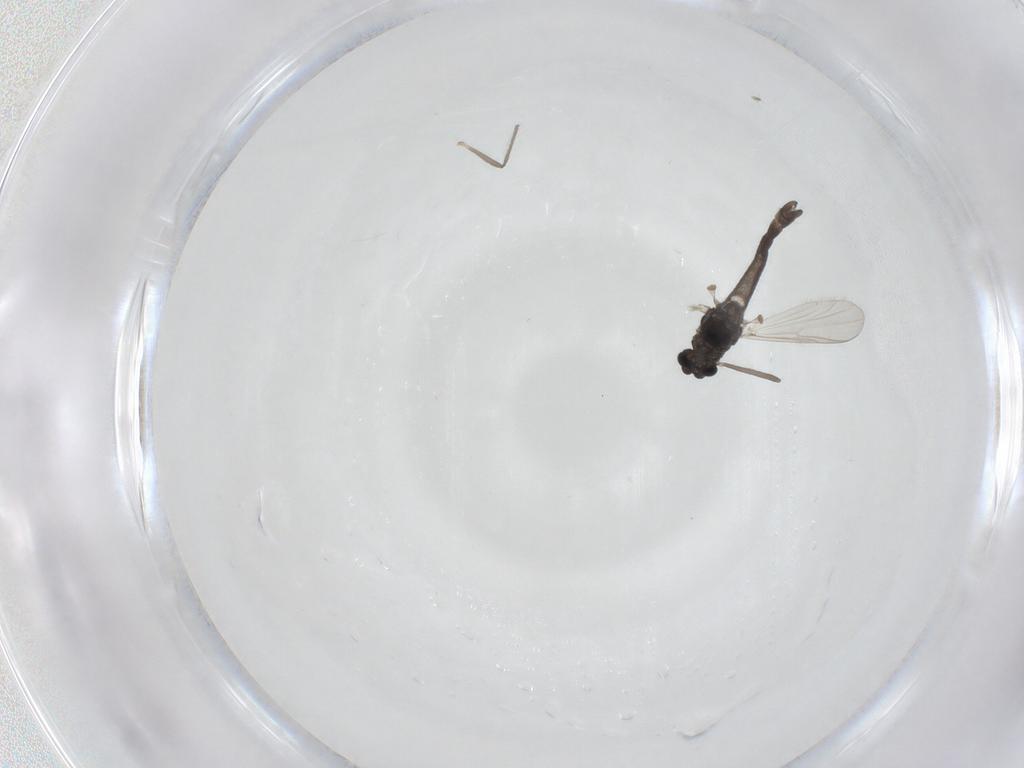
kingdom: Animalia
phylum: Arthropoda
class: Insecta
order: Diptera
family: Chironomidae
